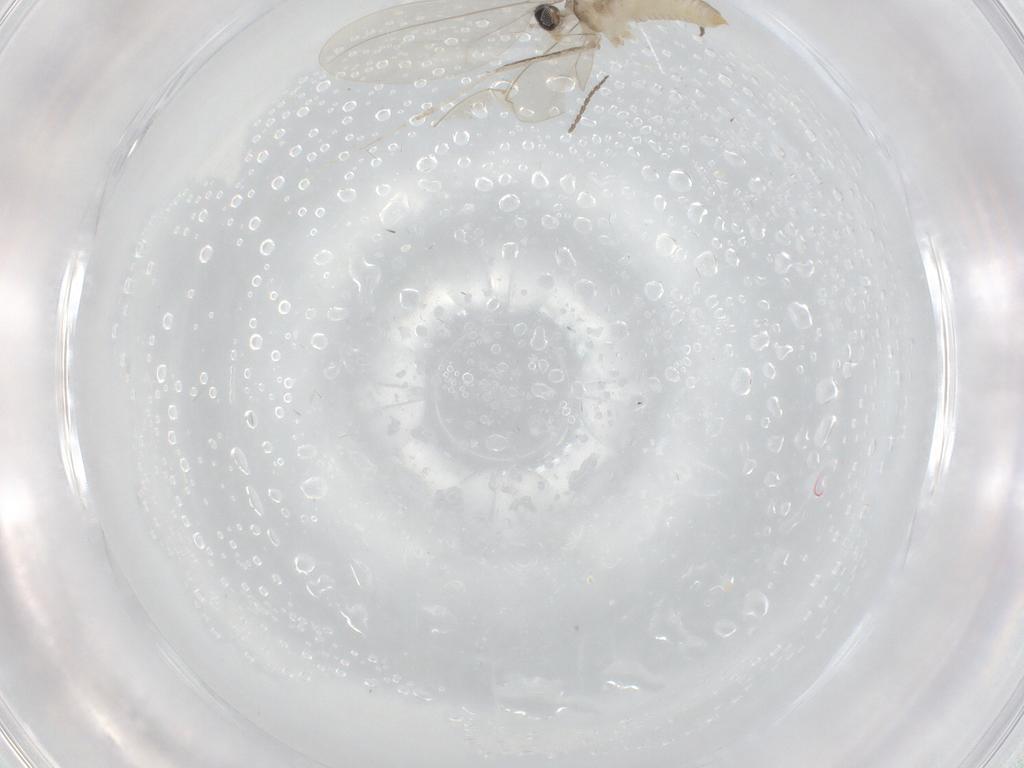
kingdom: Animalia
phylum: Arthropoda
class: Insecta
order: Diptera
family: Cecidomyiidae
